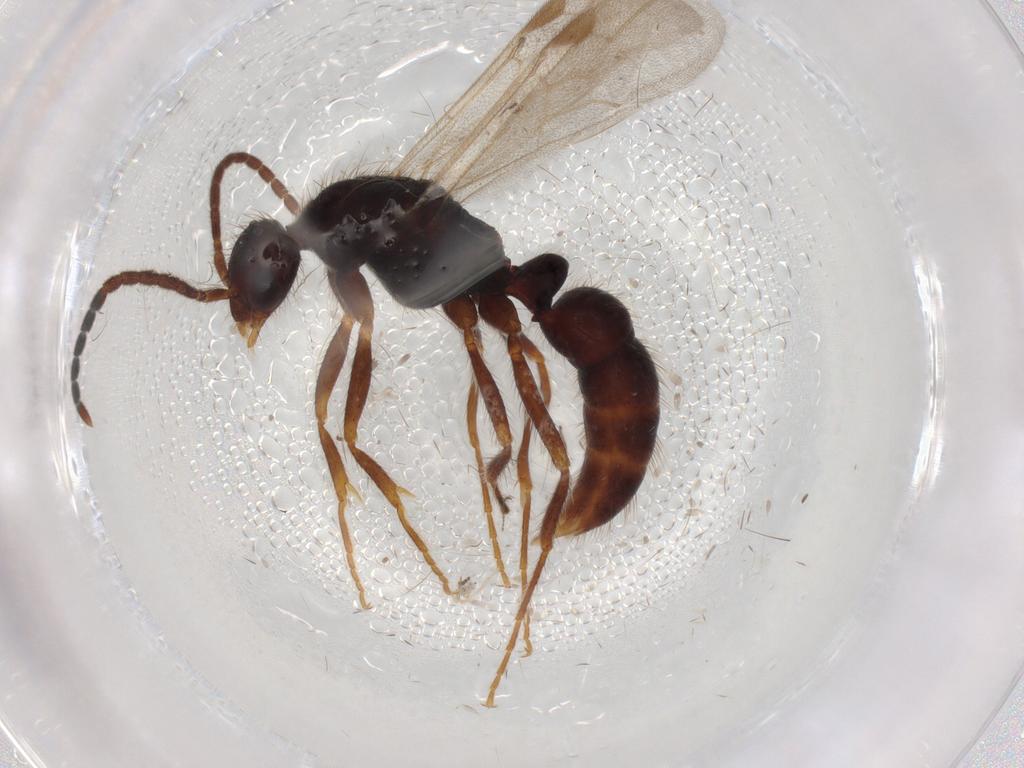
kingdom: Animalia
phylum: Arthropoda
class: Insecta
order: Hymenoptera
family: Formicidae
